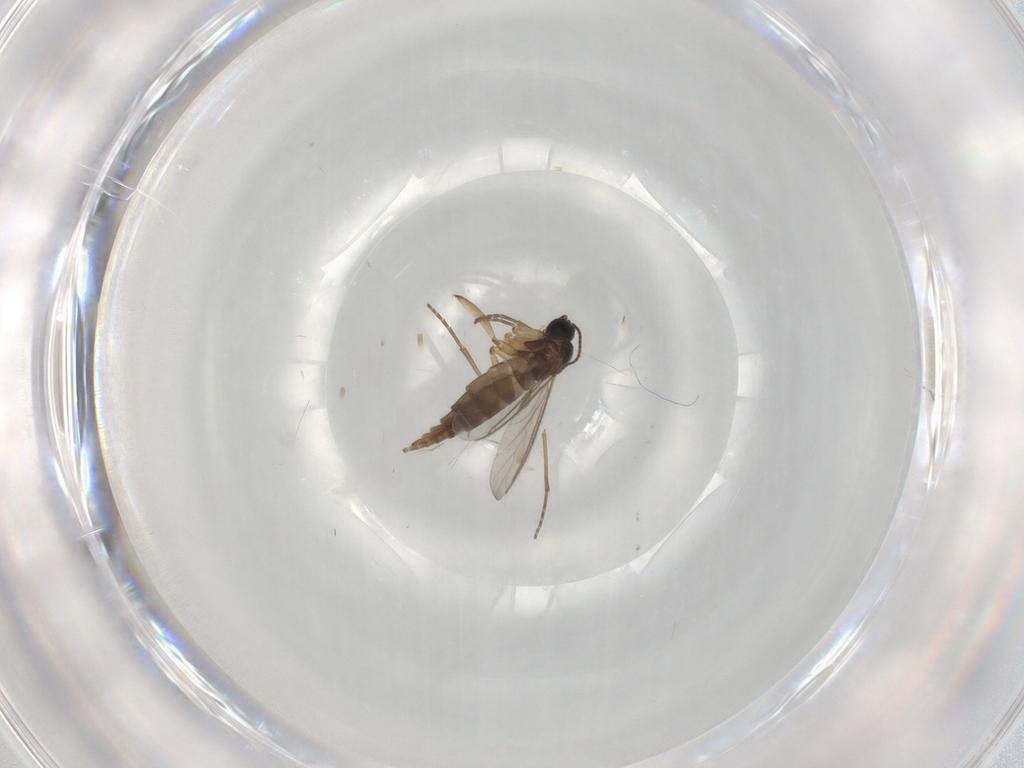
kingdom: Animalia
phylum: Arthropoda
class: Insecta
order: Diptera
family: Sciaridae
